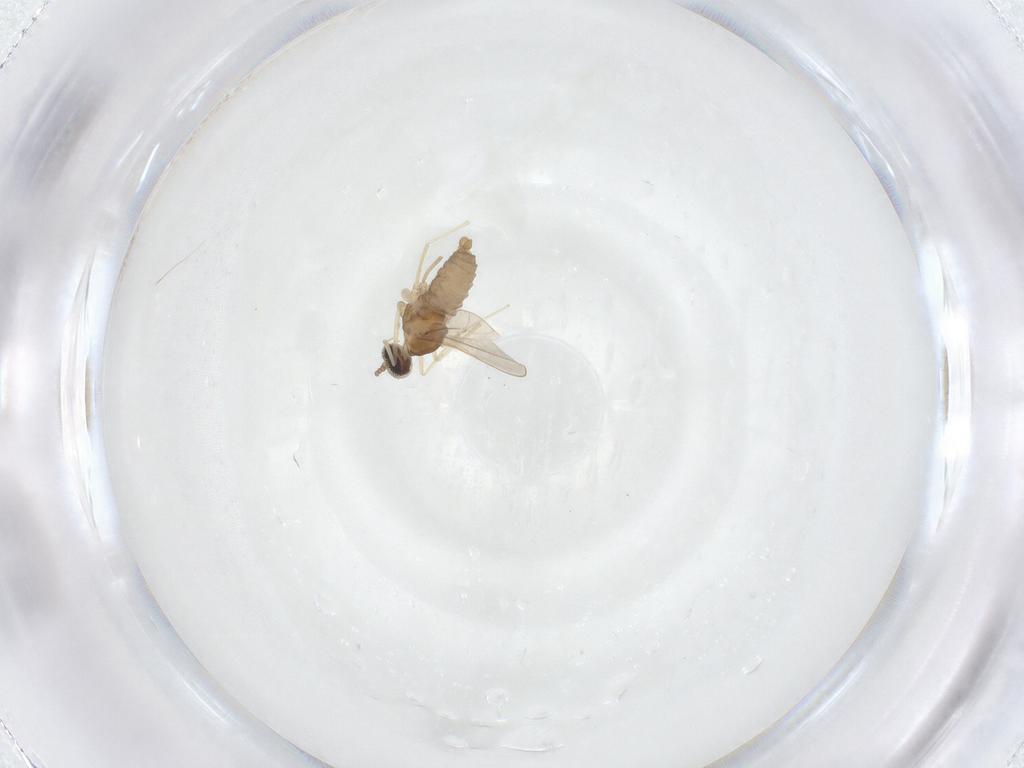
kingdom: Animalia
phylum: Arthropoda
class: Insecta
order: Diptera
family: Cecidomyiidae
